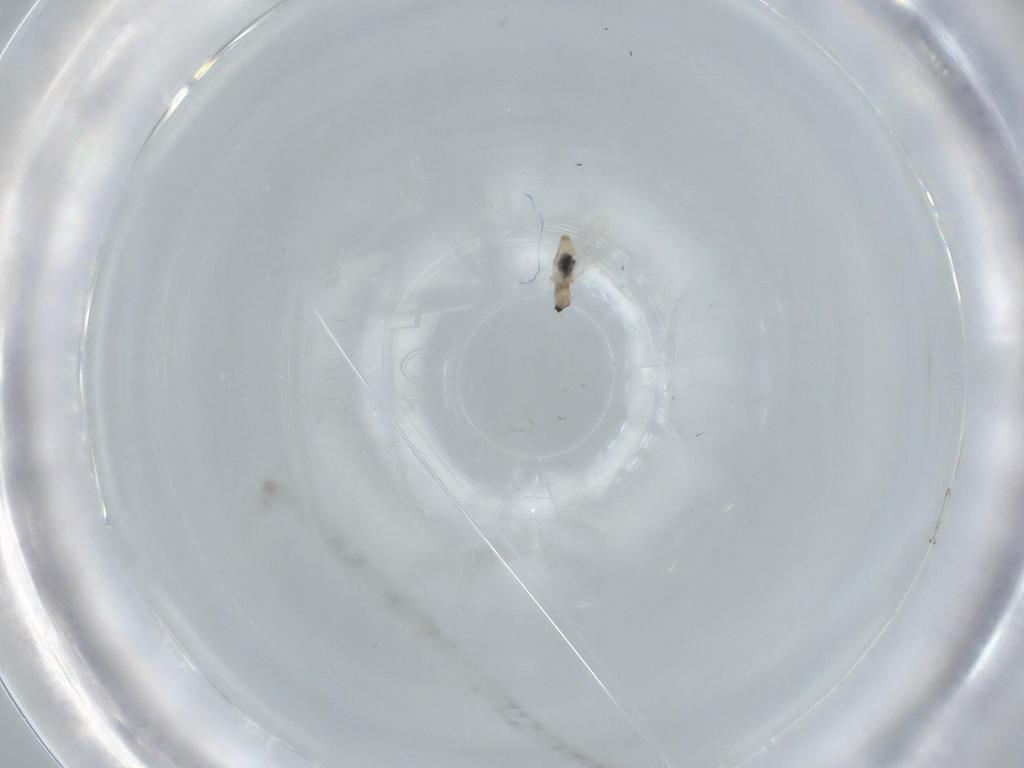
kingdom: Animalia
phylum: Arthropoda
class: Insecta
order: Diptera
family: Cecidomyiidae
